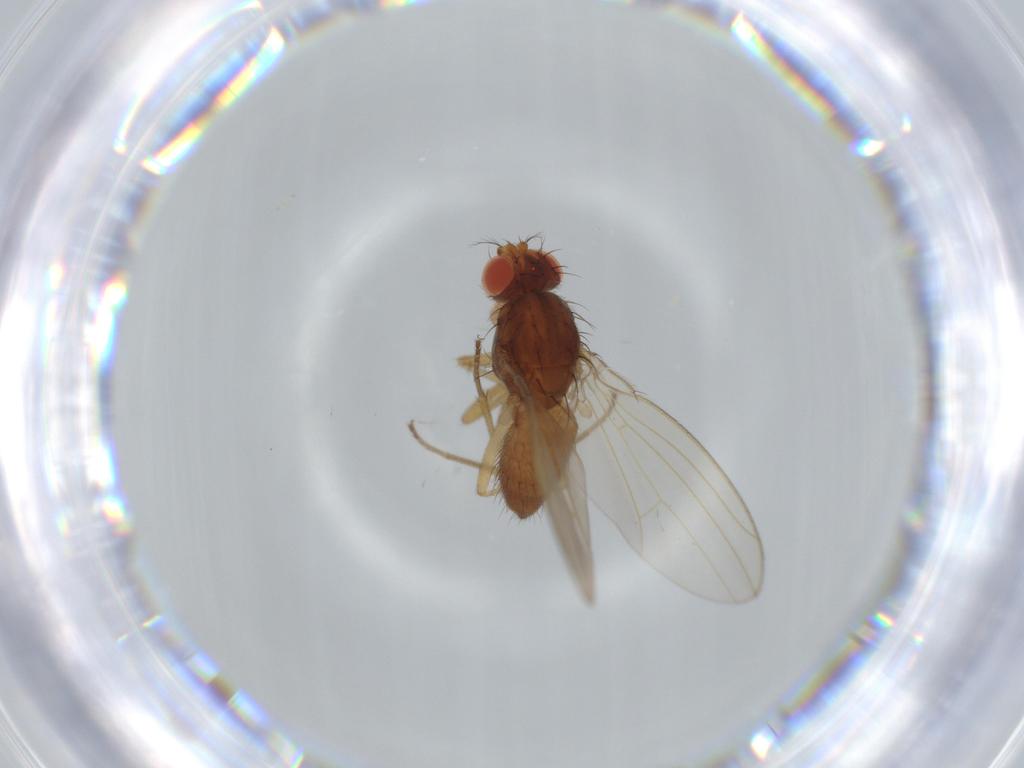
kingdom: Animalia
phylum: Arthropoda
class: Insecta
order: Diptera
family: Drosophilidae
